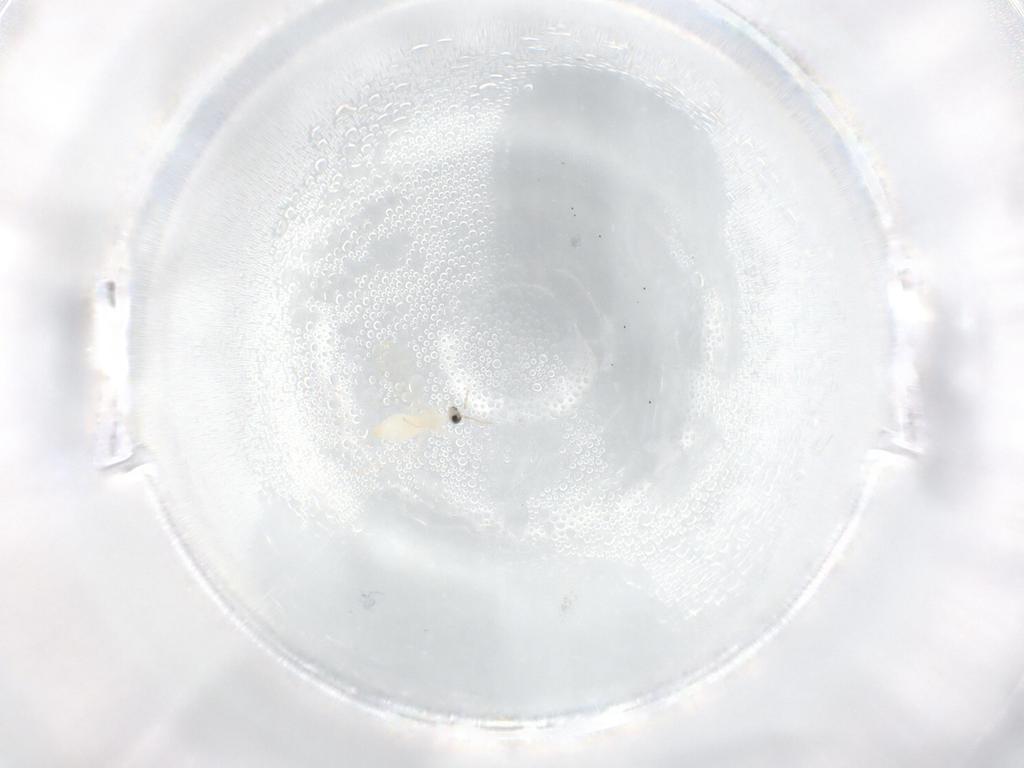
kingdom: Animalia
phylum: Arthropoda
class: Insecta
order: Diptera
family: Cecidomyiidae
